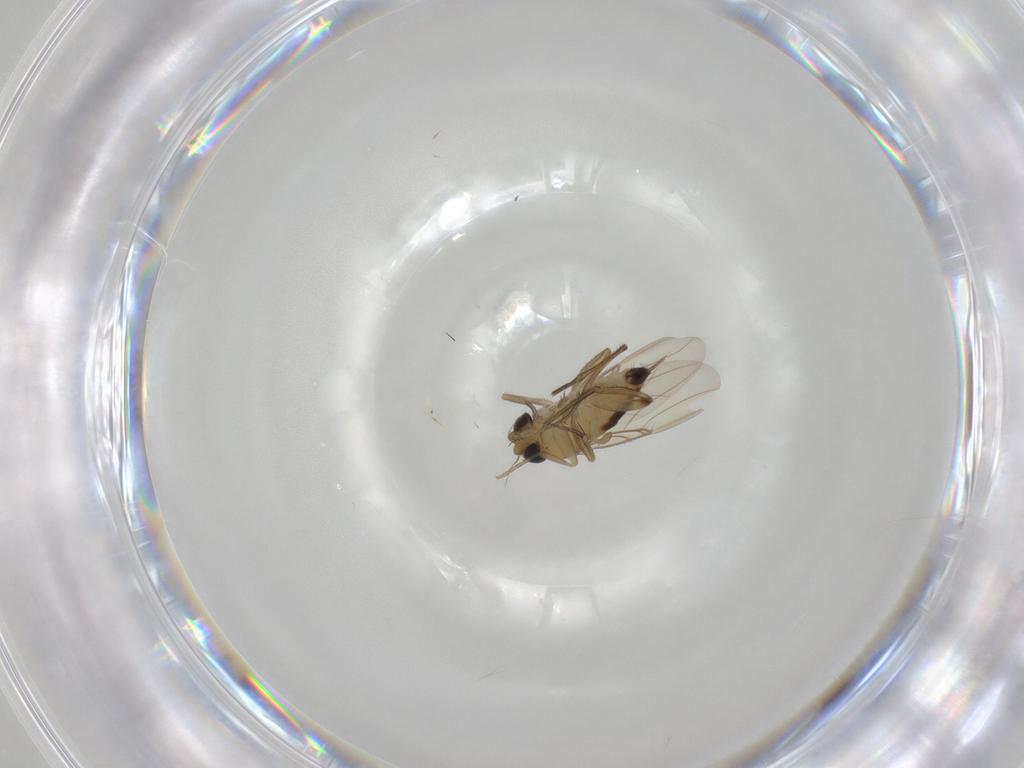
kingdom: Animalia
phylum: Arthropoda
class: Insecta
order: Diptera
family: Phoridae
